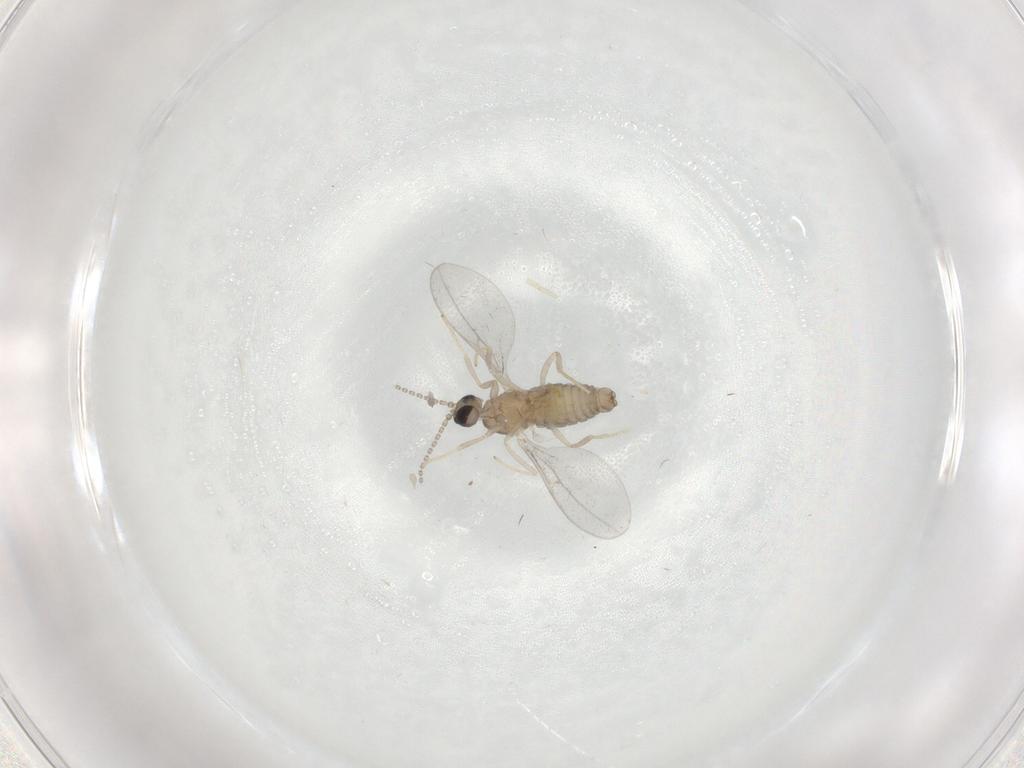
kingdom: Animalia
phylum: Arthropoda
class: Insecta
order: Diptera
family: Cecidomyiidae
